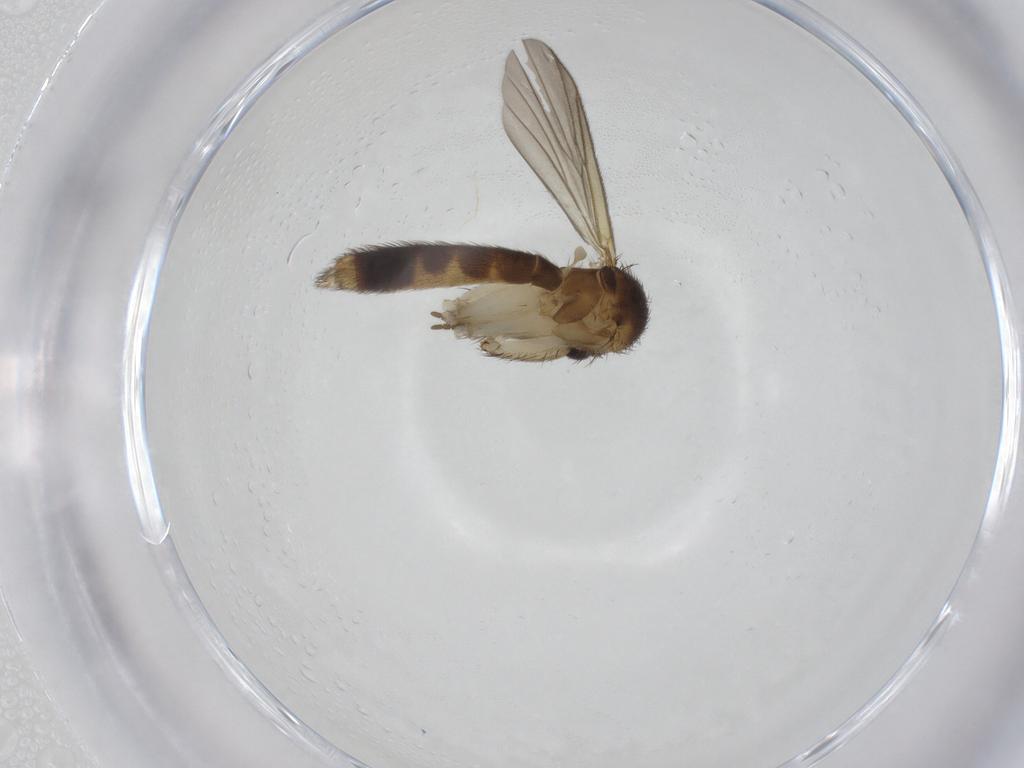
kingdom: Animalia
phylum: Arthropoda
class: Insecta
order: Diptera
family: Mycetophilidae
